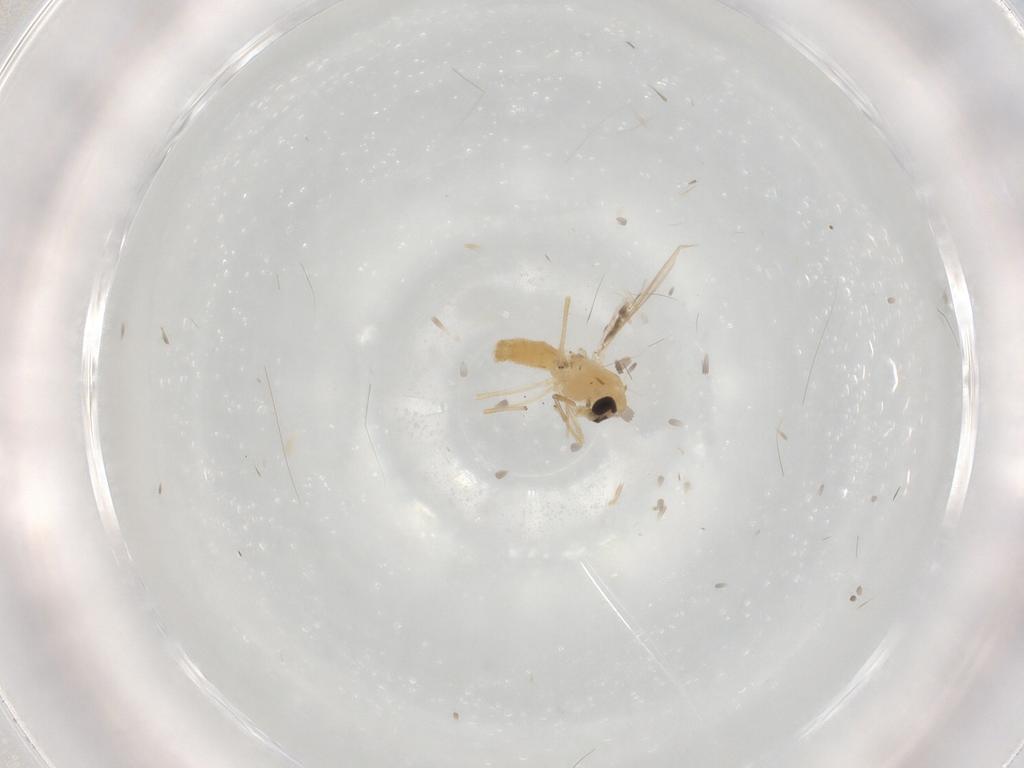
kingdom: Animalia
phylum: Arthropoda
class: Insecta
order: Diptera
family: Chironomidae
